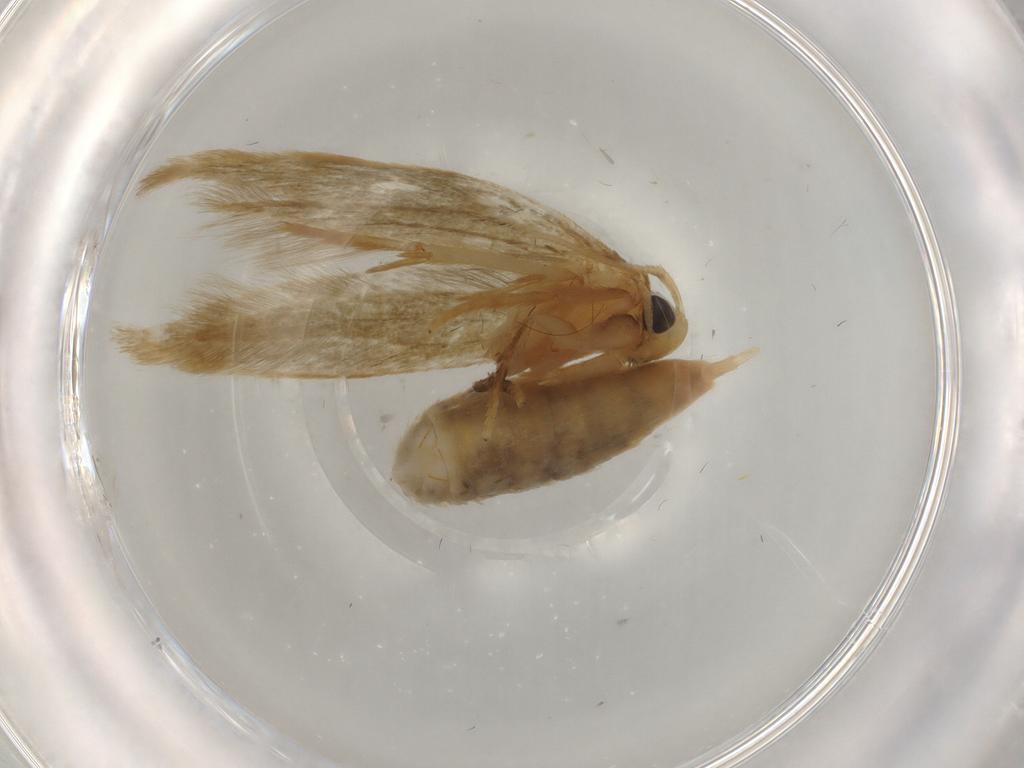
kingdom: Animalia
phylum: Arthropoda
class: Insecta
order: Lepidoptera
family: Tineidae
